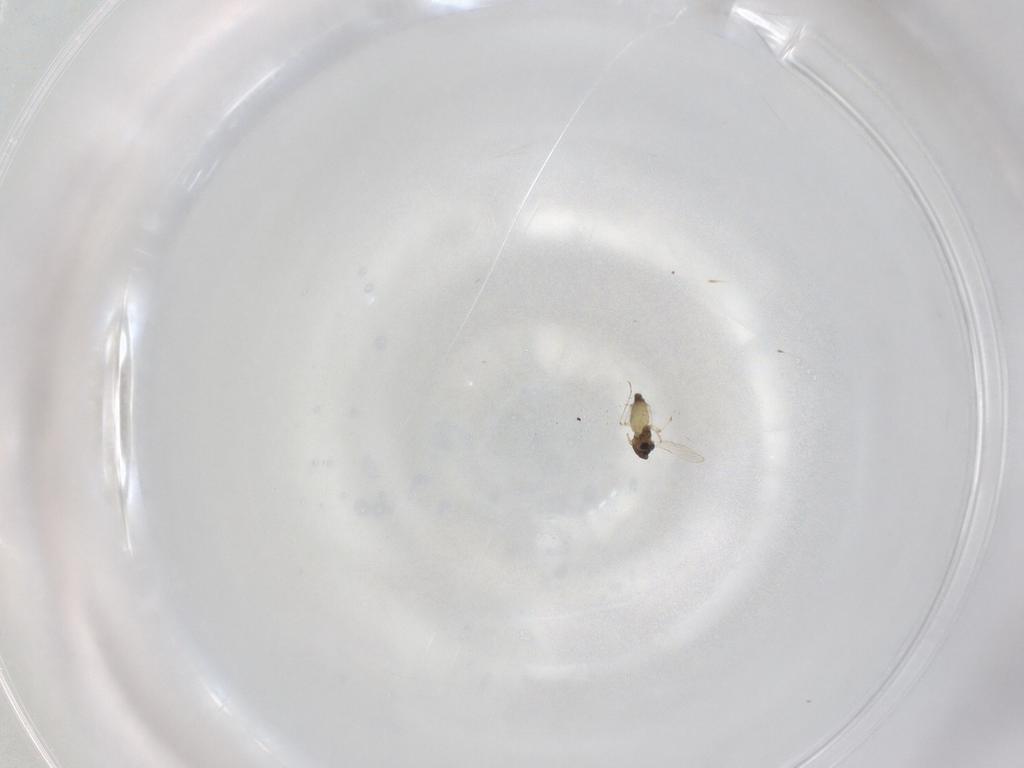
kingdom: Animalia
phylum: Arthropoda
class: Insecta
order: Diptera
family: Chironomidae
